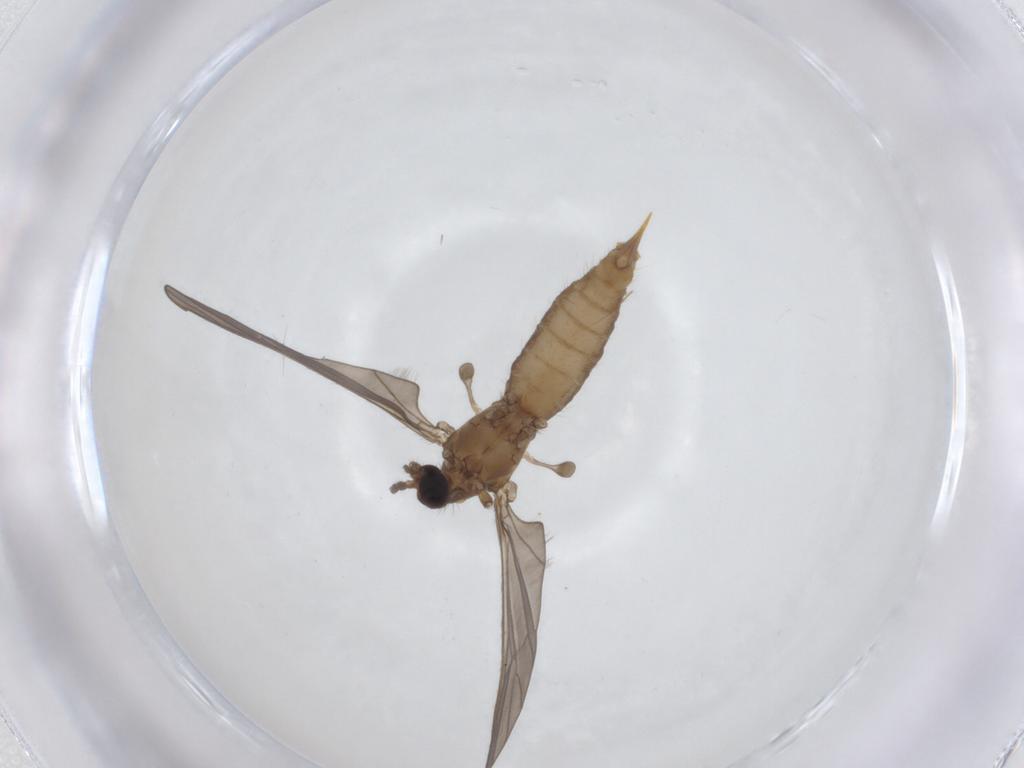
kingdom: Animalia
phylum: Arthropoda
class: Insecta
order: Diptera
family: Limoniidae
